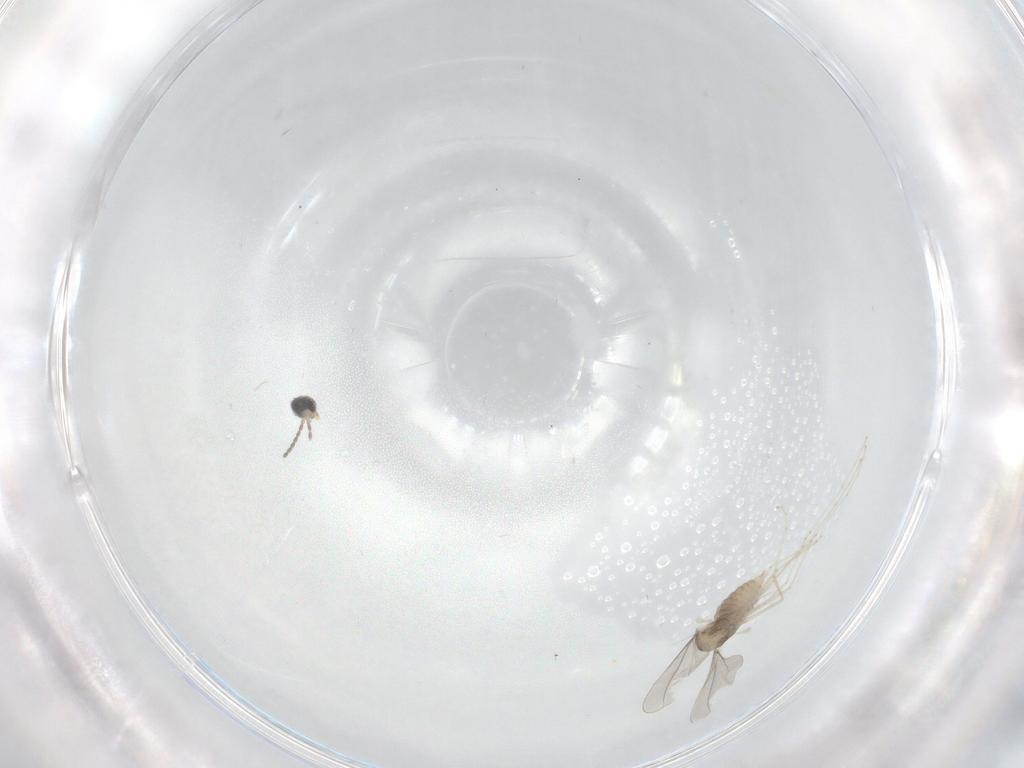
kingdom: Animalia
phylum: Arthropoda
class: Insecta
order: Diptera
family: Cecidomyiidae
